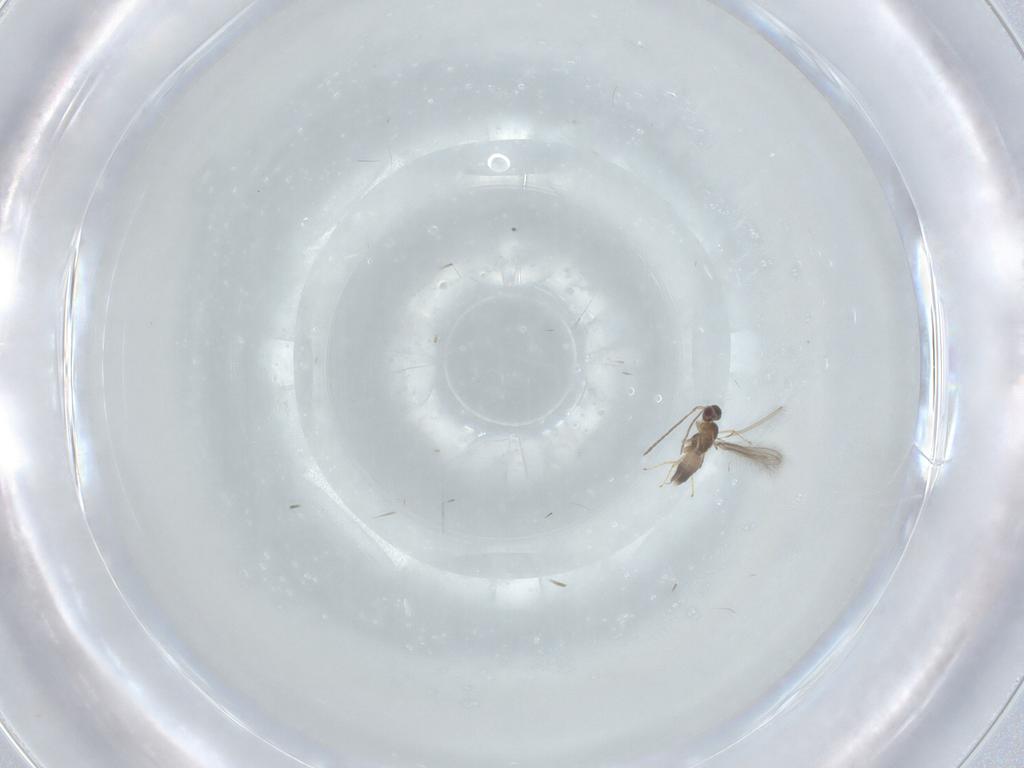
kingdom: Animalia
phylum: Arthropoda
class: Insecta
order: Hymenoptera
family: Mymaridae
